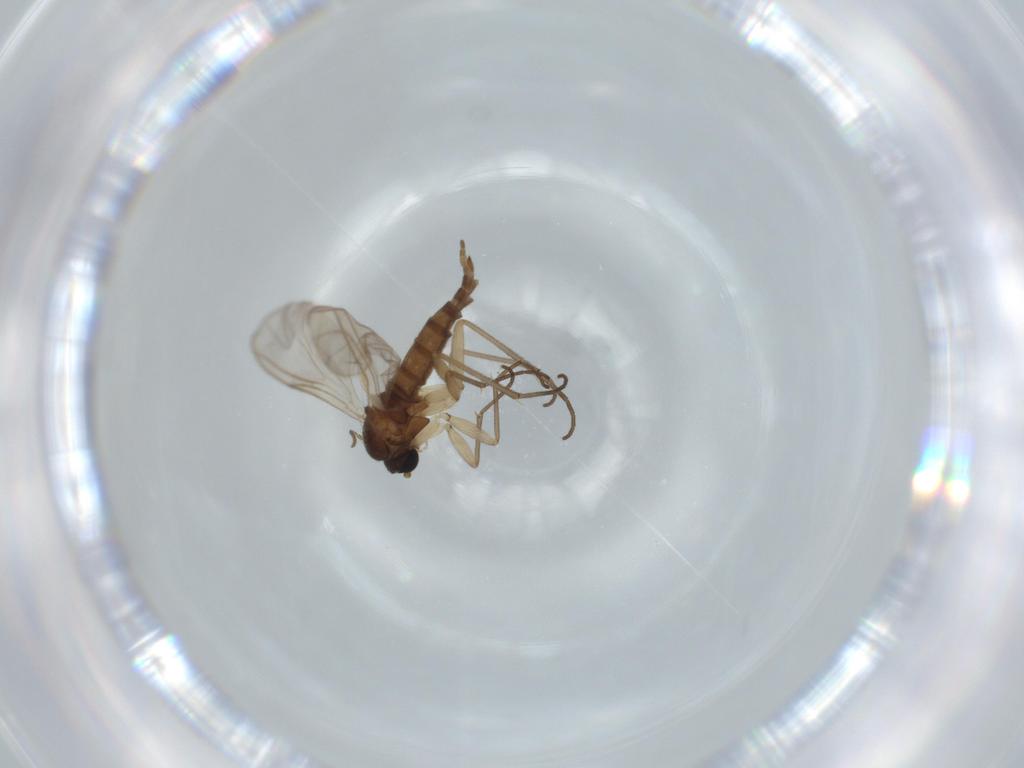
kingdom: Animalia
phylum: Arthropoda
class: Insecta
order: Diptera
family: Sciaridae
